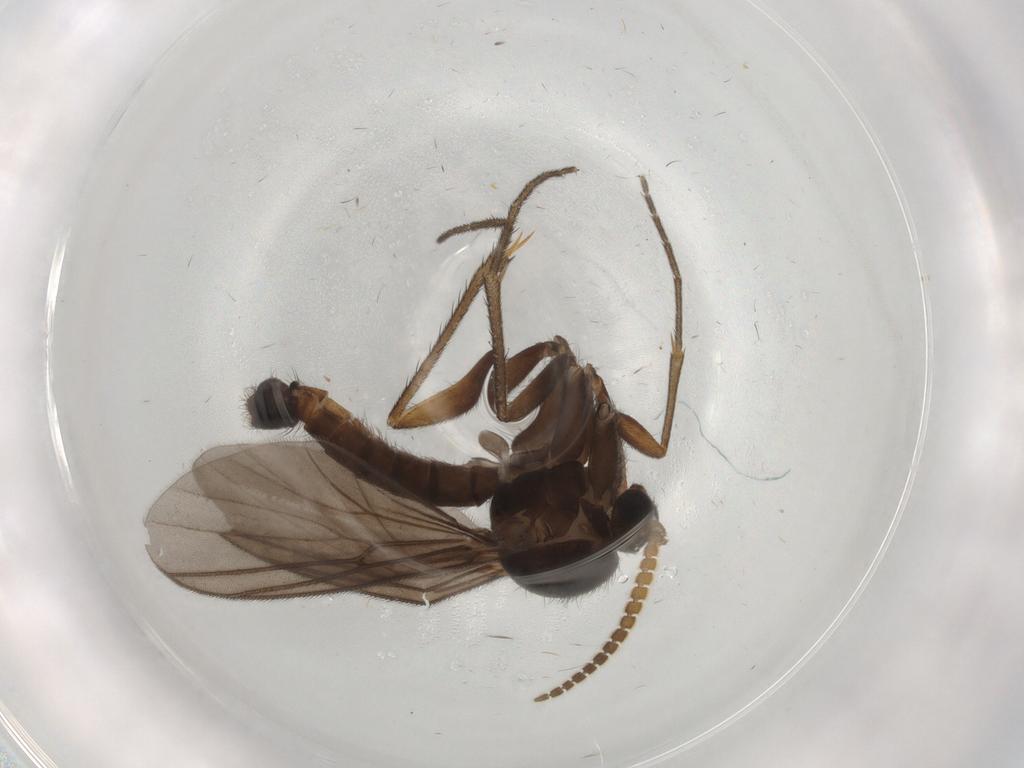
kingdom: Animalia
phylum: Arthropoda
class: Insecta
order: Diptera
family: Mycetophilidae
